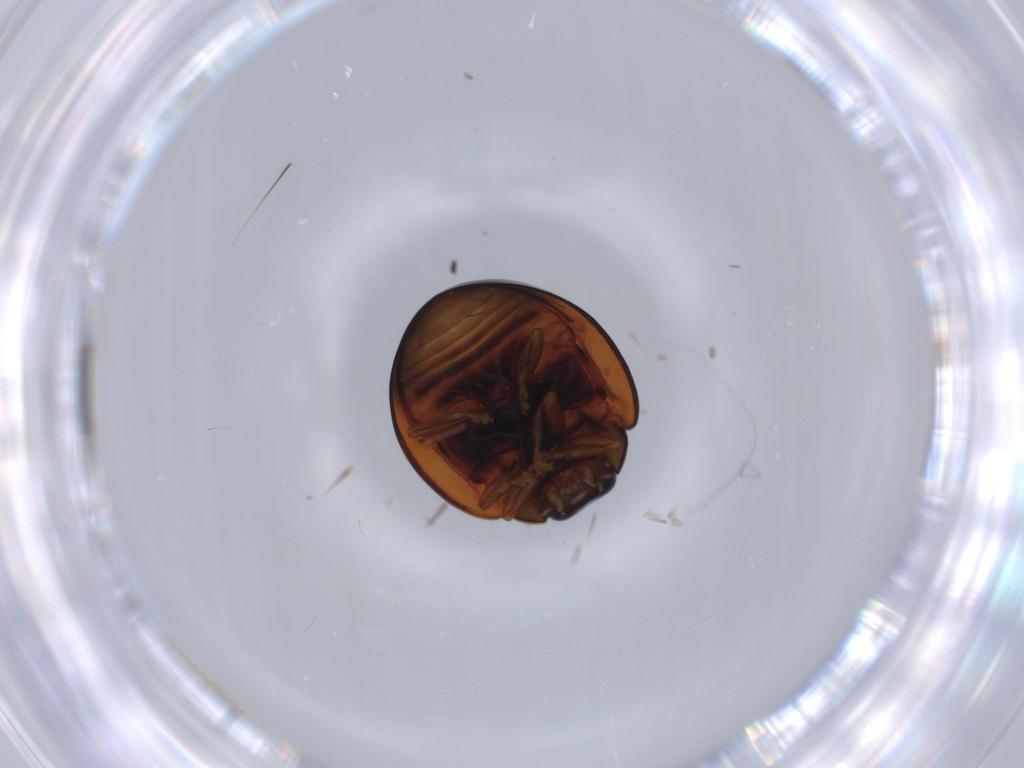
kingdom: Animalia
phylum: Arthropoda
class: Insecta
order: Coleoptera
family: Coccinellidae
